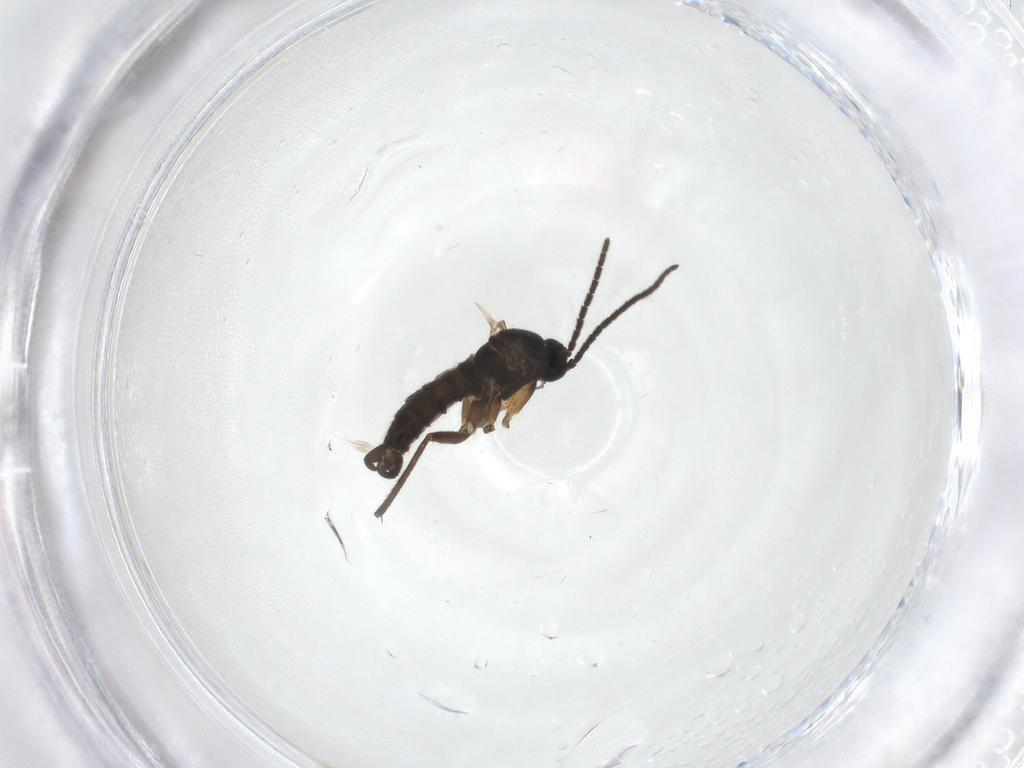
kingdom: Animalia
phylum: Arthropoda
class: Insecta
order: Diptera
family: Sciaridae
